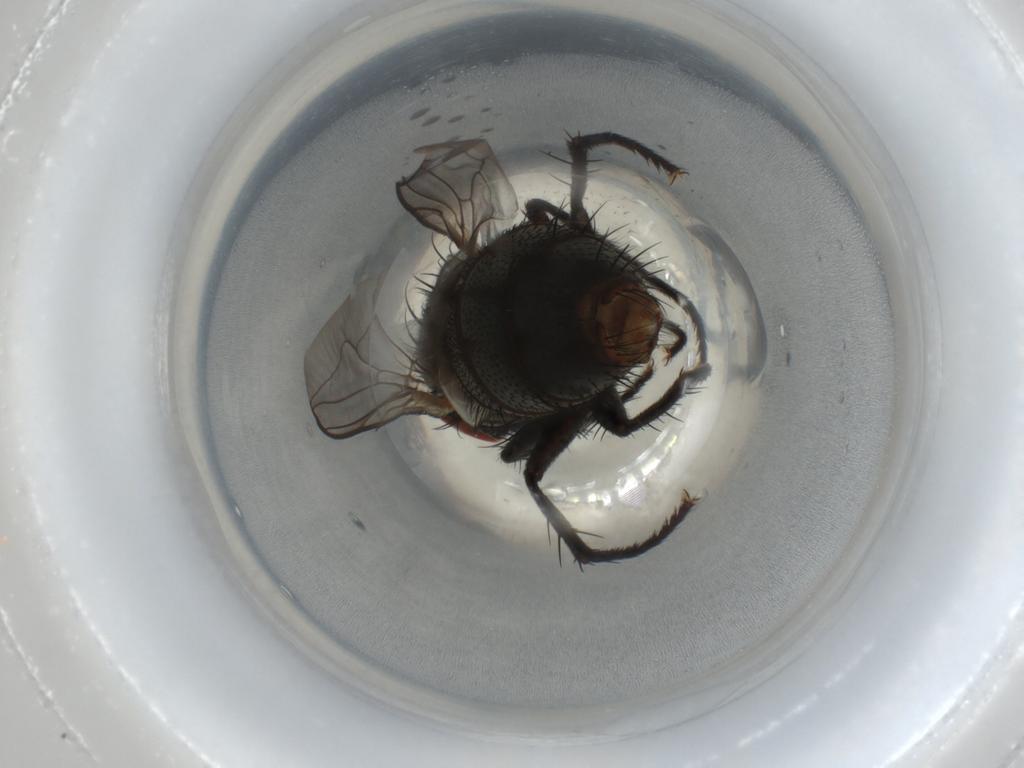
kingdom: Animalia
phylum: Arthropoda
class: Insecta
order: Diptera
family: Sarcophagidae
